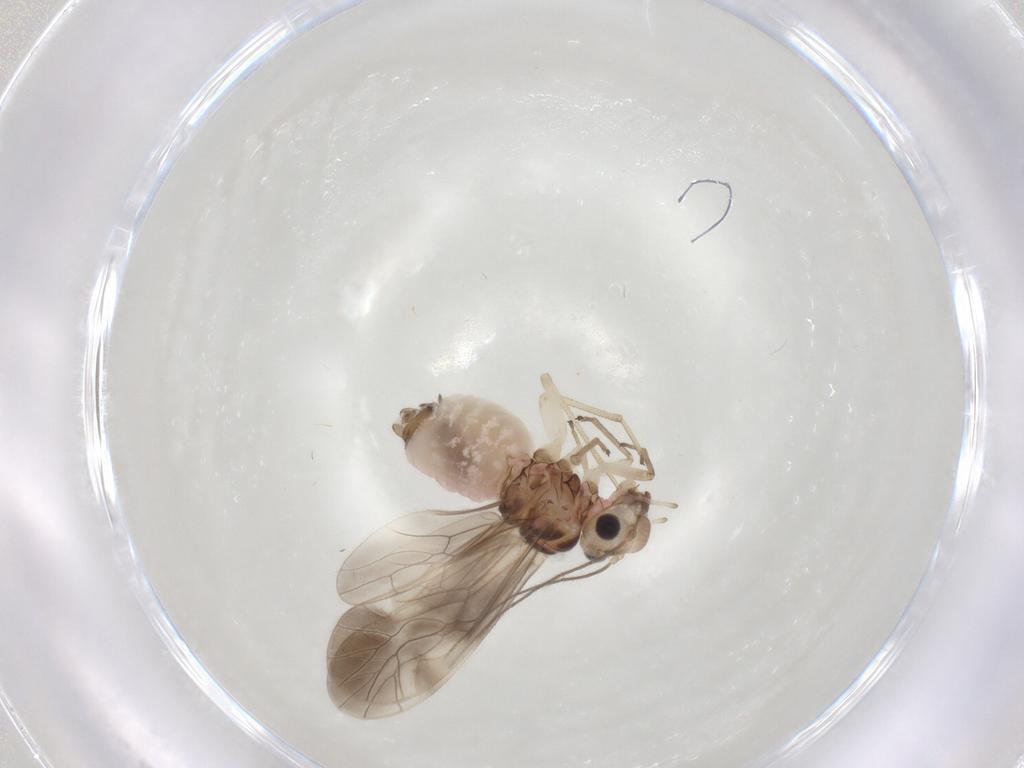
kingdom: Animalia
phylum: Arthropoda
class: Insecta
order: Psocodea
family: Caeciliusidae
